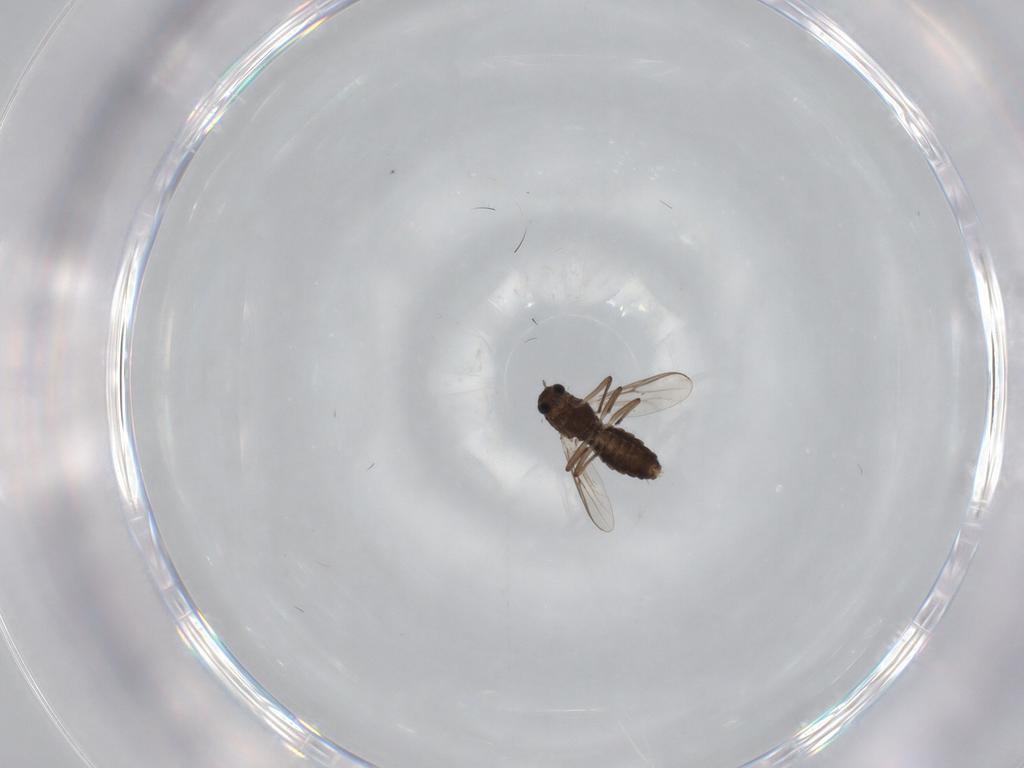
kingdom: Animalia
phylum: Arthropoda
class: Insecta
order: Diptera
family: Chironomidae
